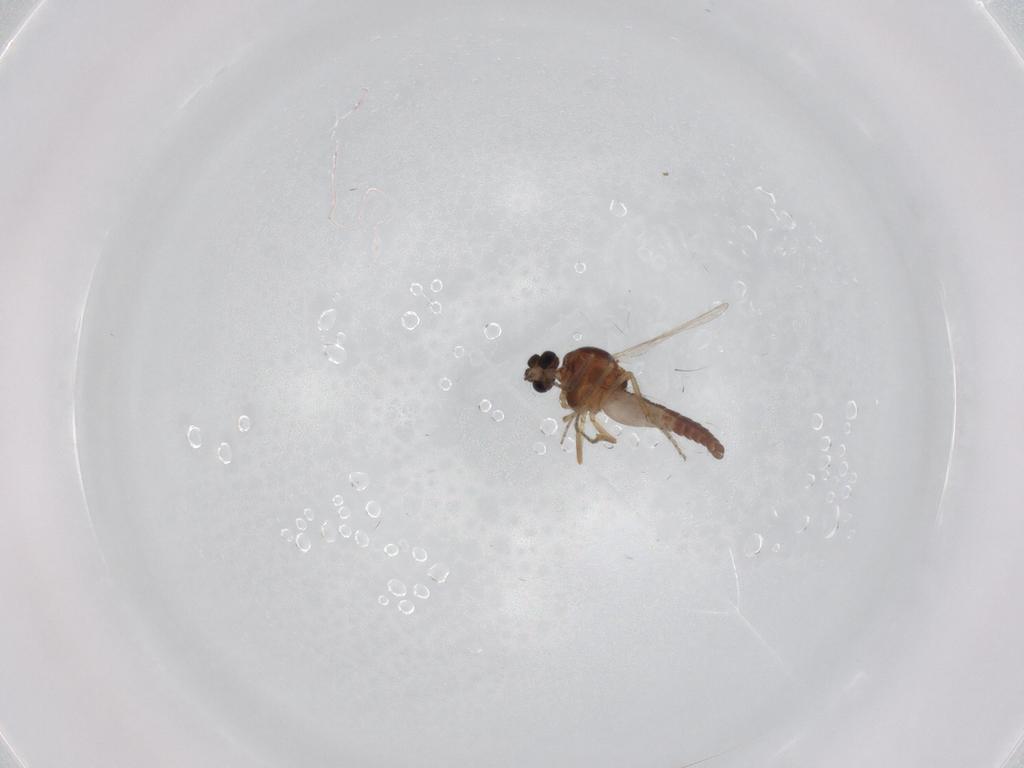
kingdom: Animalia
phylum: Arthropoda
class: Insecta
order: Diptera
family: Ceratopogonidae
